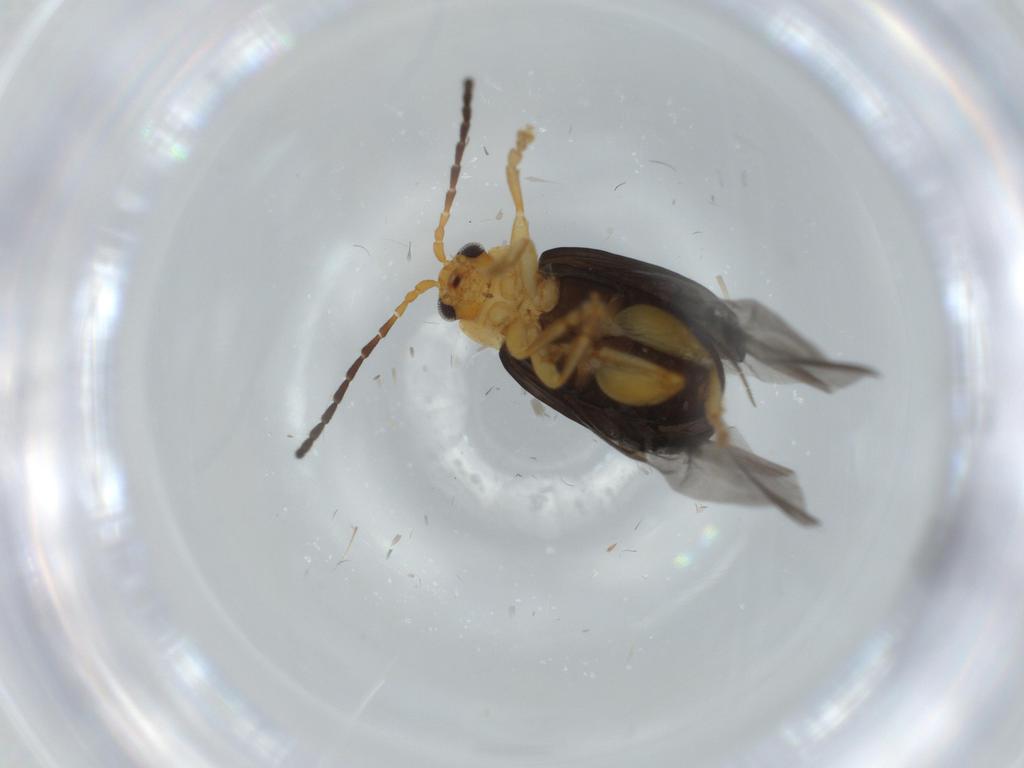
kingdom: Animalia
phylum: Arthropoda
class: Insecta
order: Coleoptera
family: Chrysomelidae
